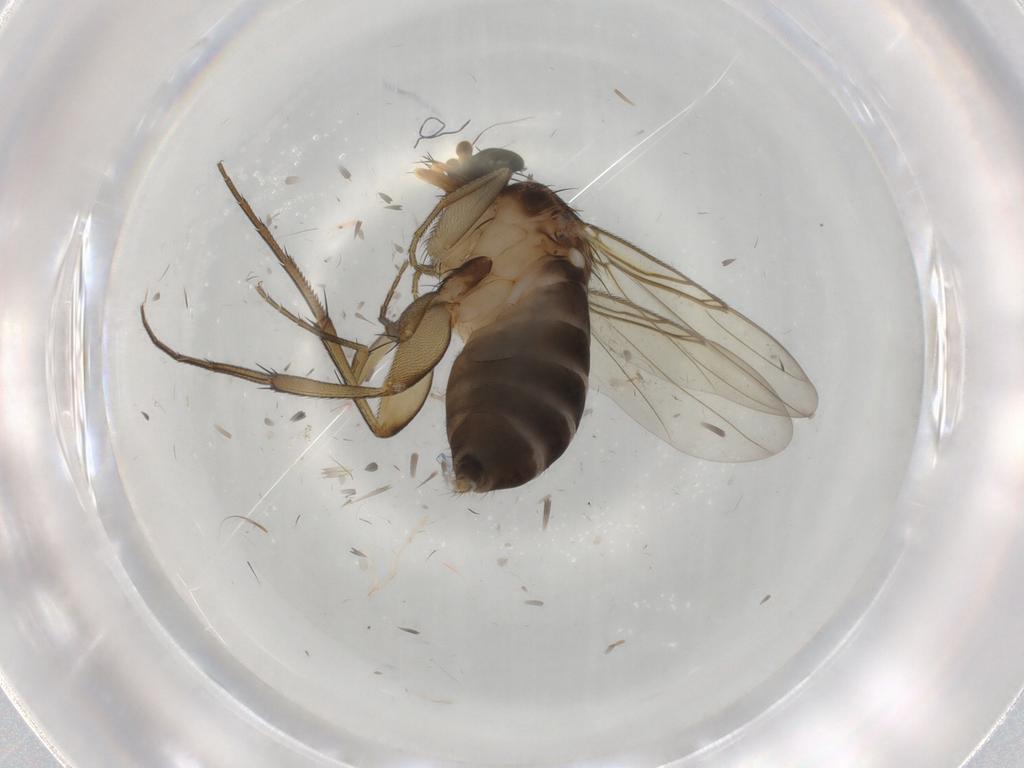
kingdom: Animalia
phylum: Arthropoda
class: Insecta
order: Diptera
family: Phoridae
